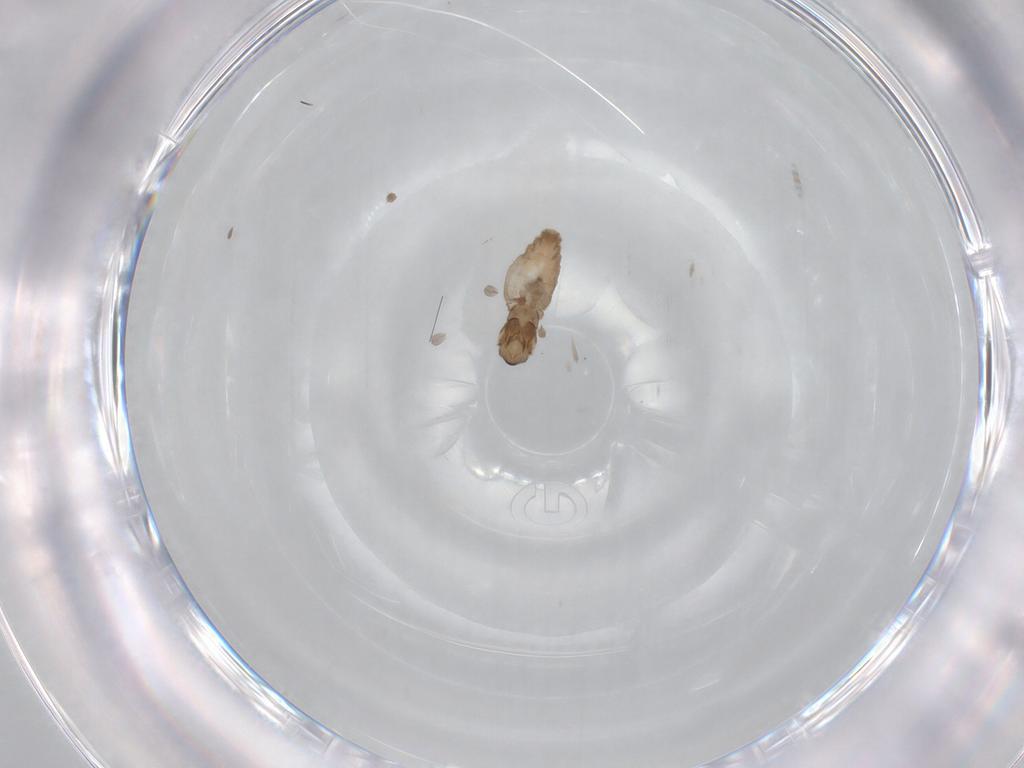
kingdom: Animalia
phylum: Arthropoda
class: Insecta
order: Diptera
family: Cecidomyiidae
